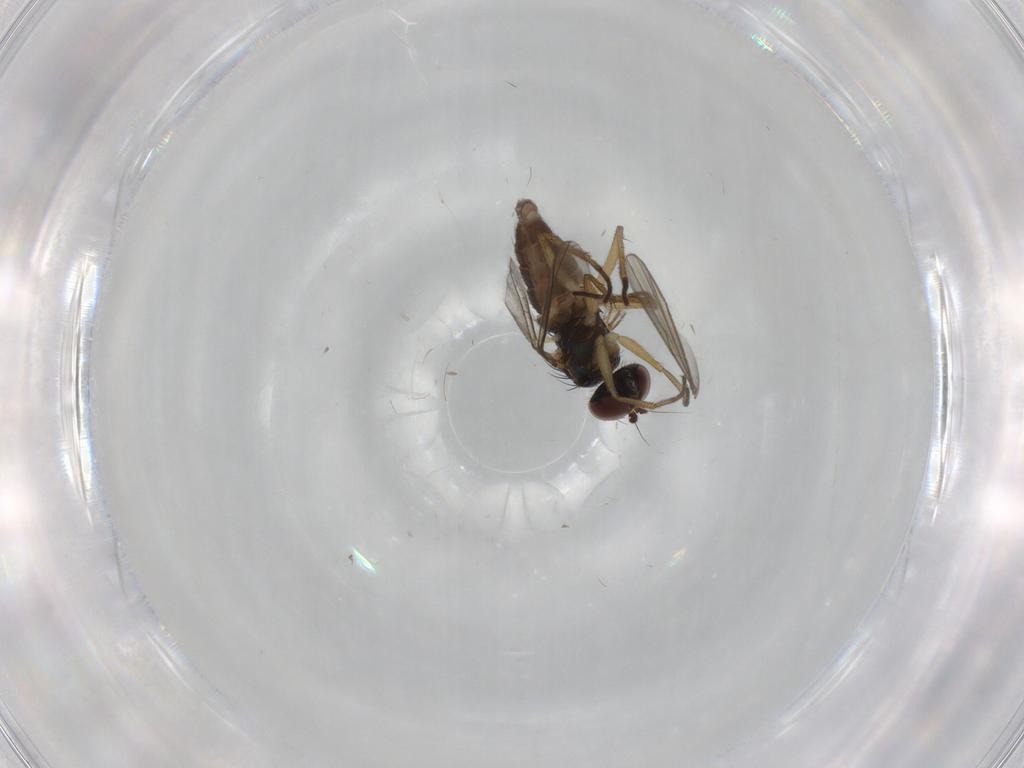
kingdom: Animalia
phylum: Arthropoda
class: Insecta
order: Diptera
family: Dolichopodidae
